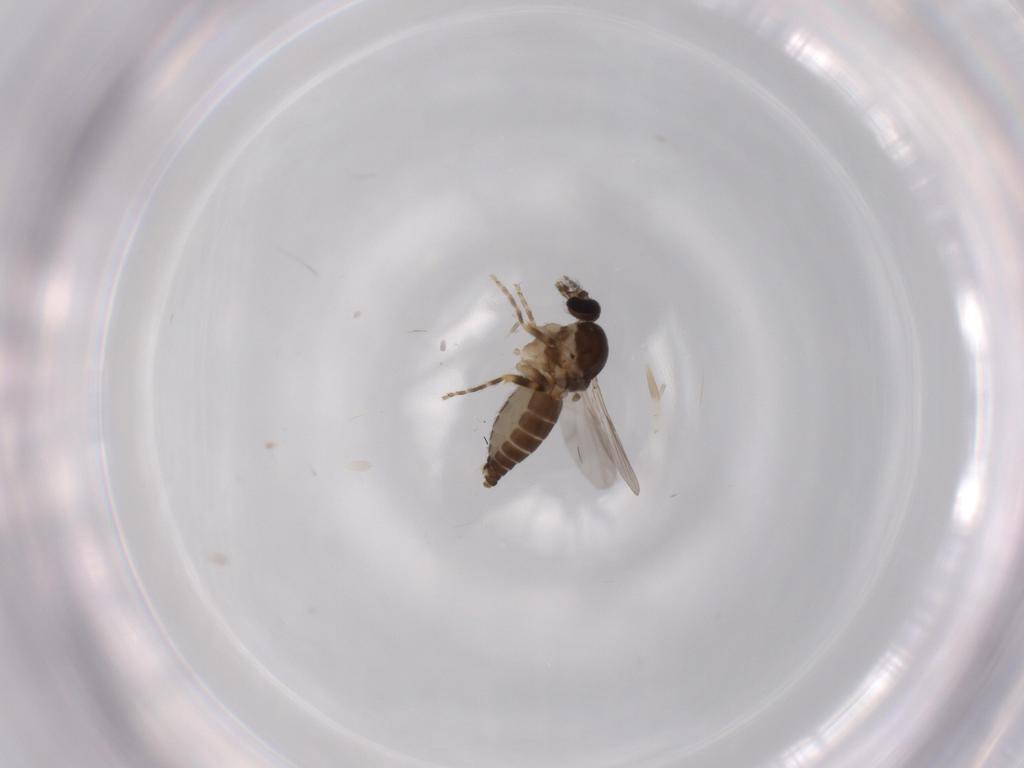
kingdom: Animalia
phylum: Arthropoda
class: Insecta
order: Diptera
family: Ceratopogonidae
